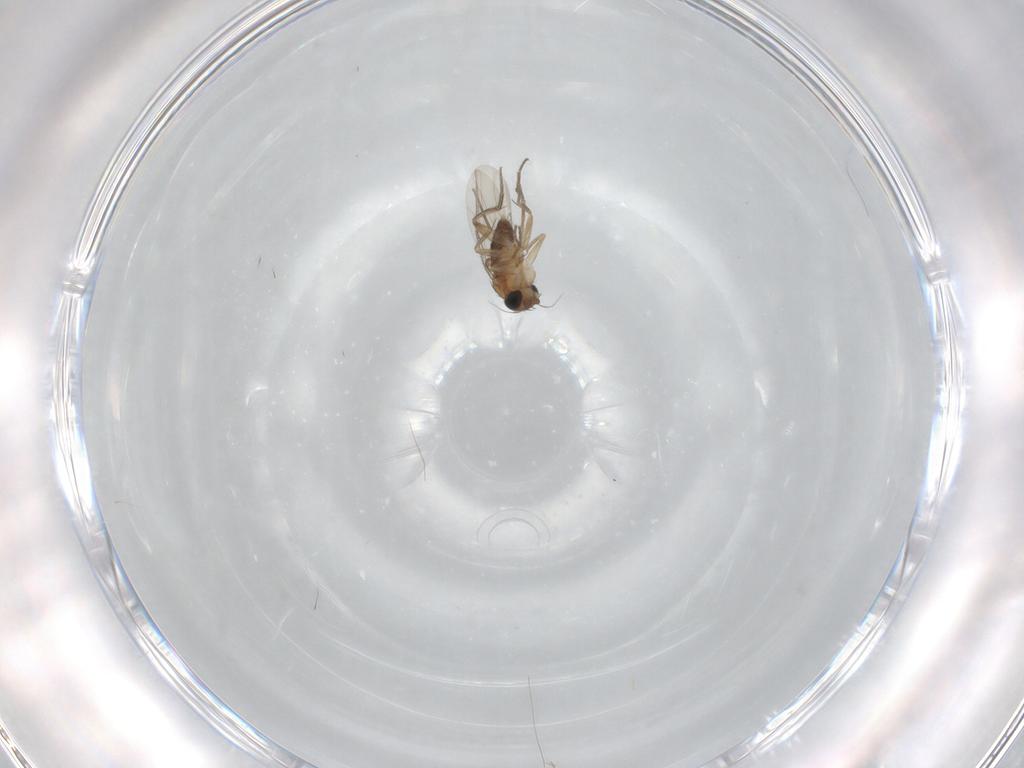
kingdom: Animalia
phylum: Arthropoda
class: Insecta
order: Diptera
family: Phoridae
